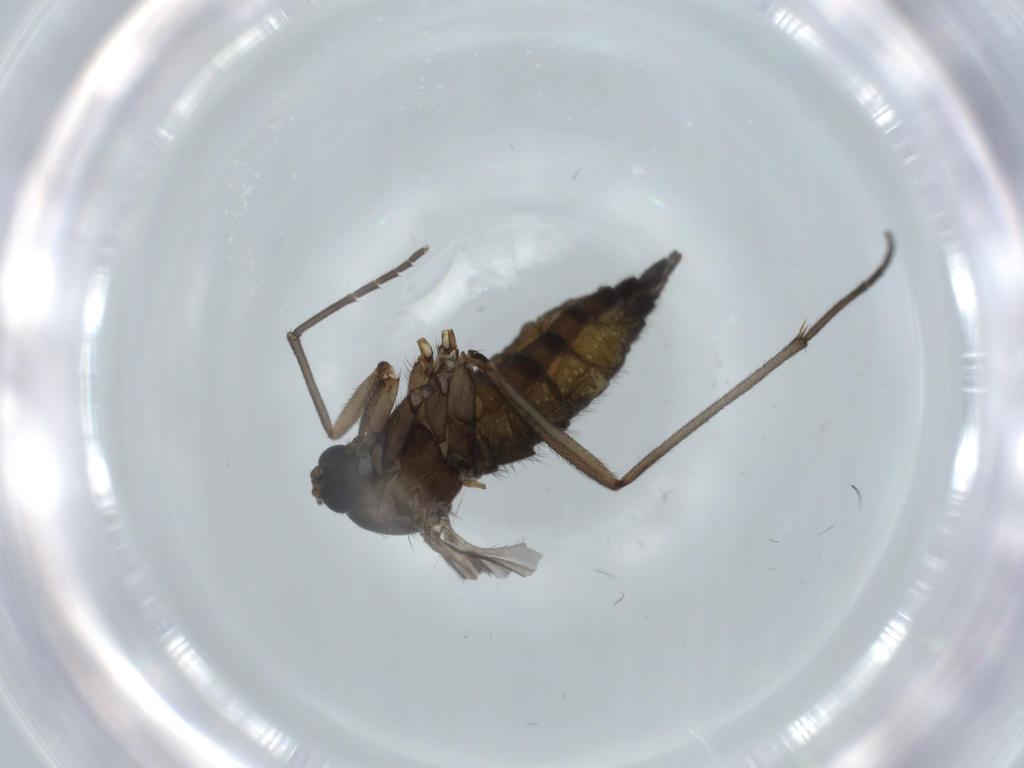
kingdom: Animalia
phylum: Arthropoda
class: Insecta
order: Diptera
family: Sciaridae
